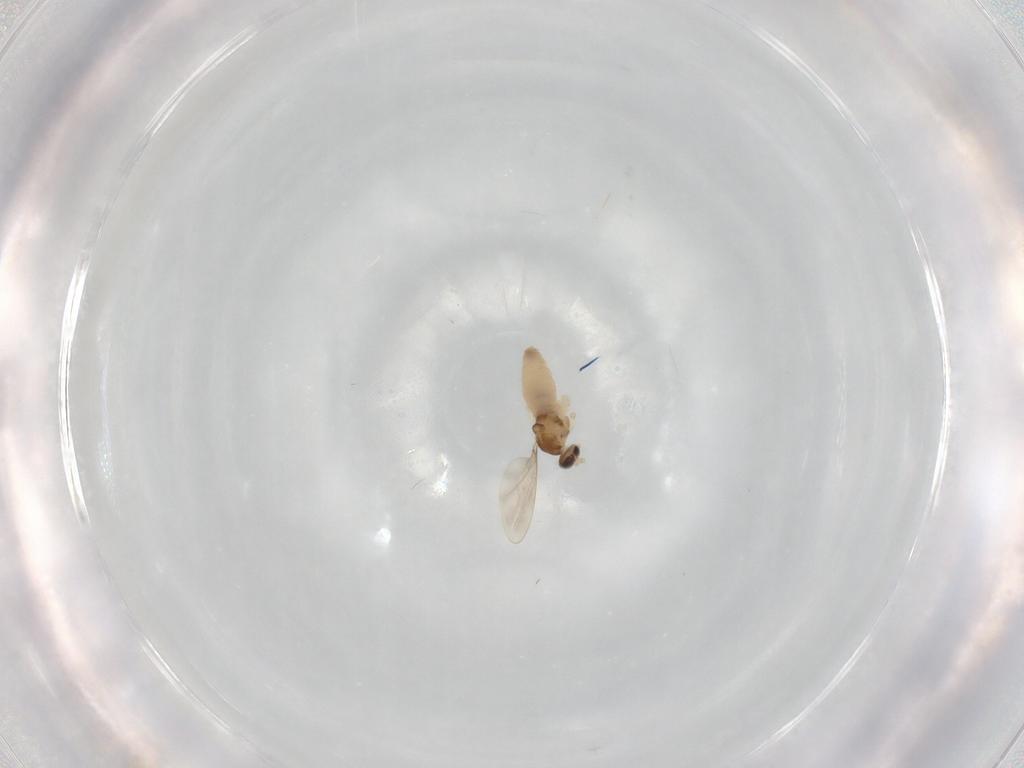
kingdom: Animalia
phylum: Arthropoda
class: Insecta
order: Diptera
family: Cecidomyiidae
